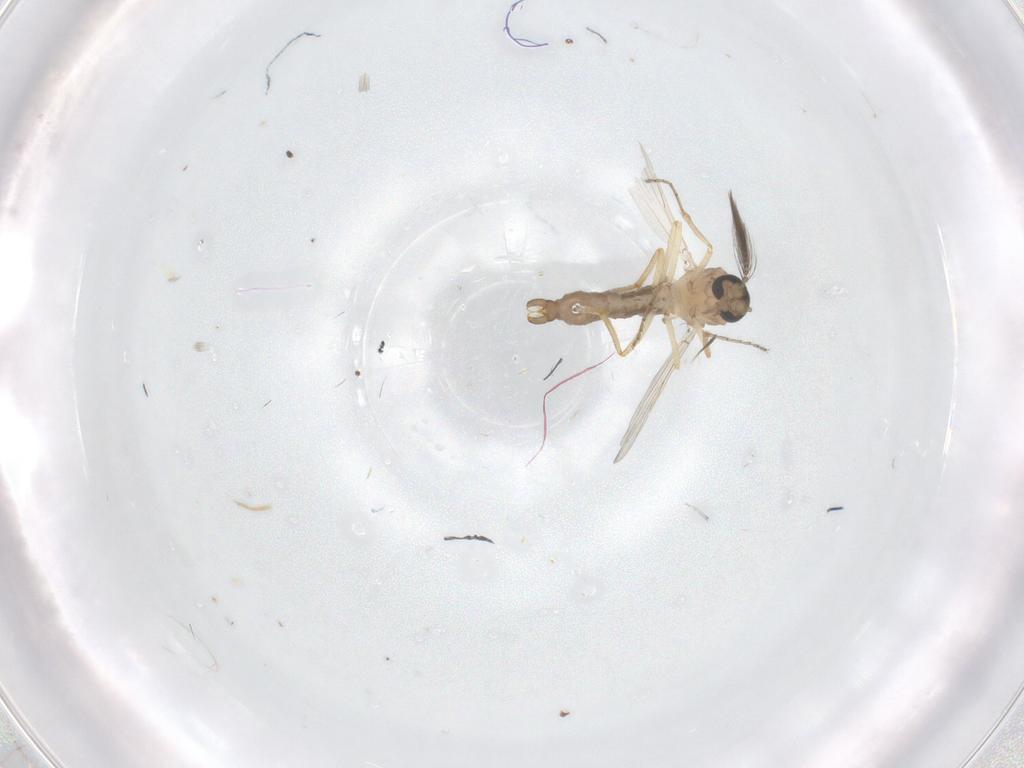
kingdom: Animalia
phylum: Arthropoda
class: Insecta
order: Diptera
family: Ceratopogonidae
